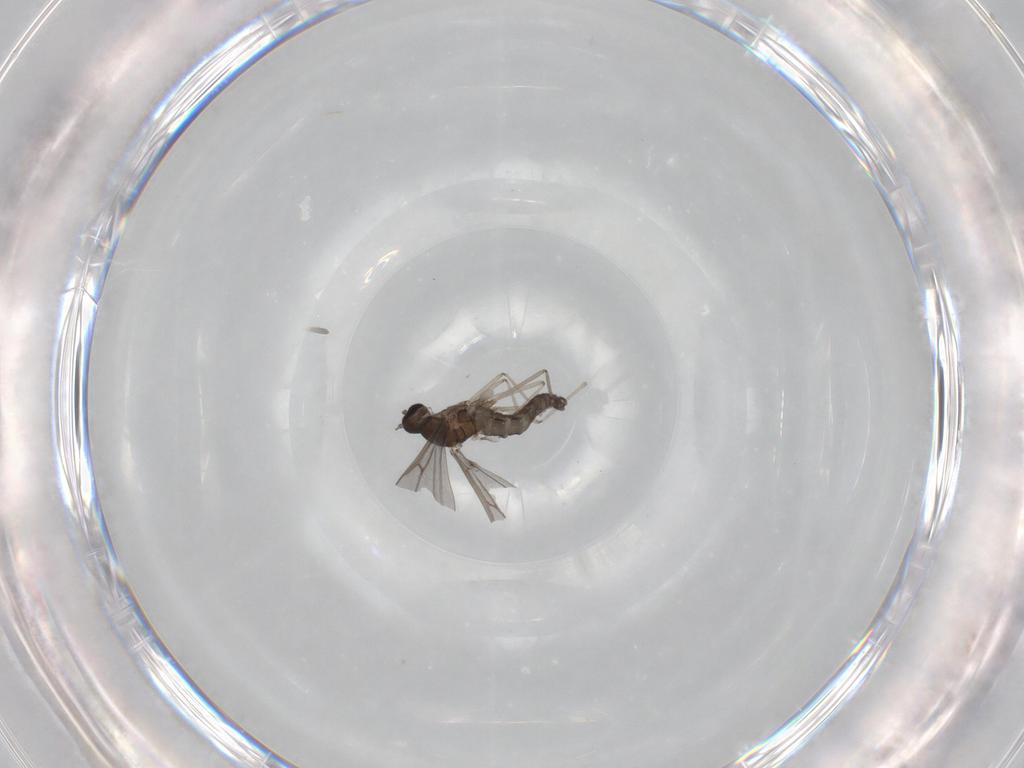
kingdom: Animalia
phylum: Arthropoda
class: Insecta
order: Diptera
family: Cecidomyiidae
